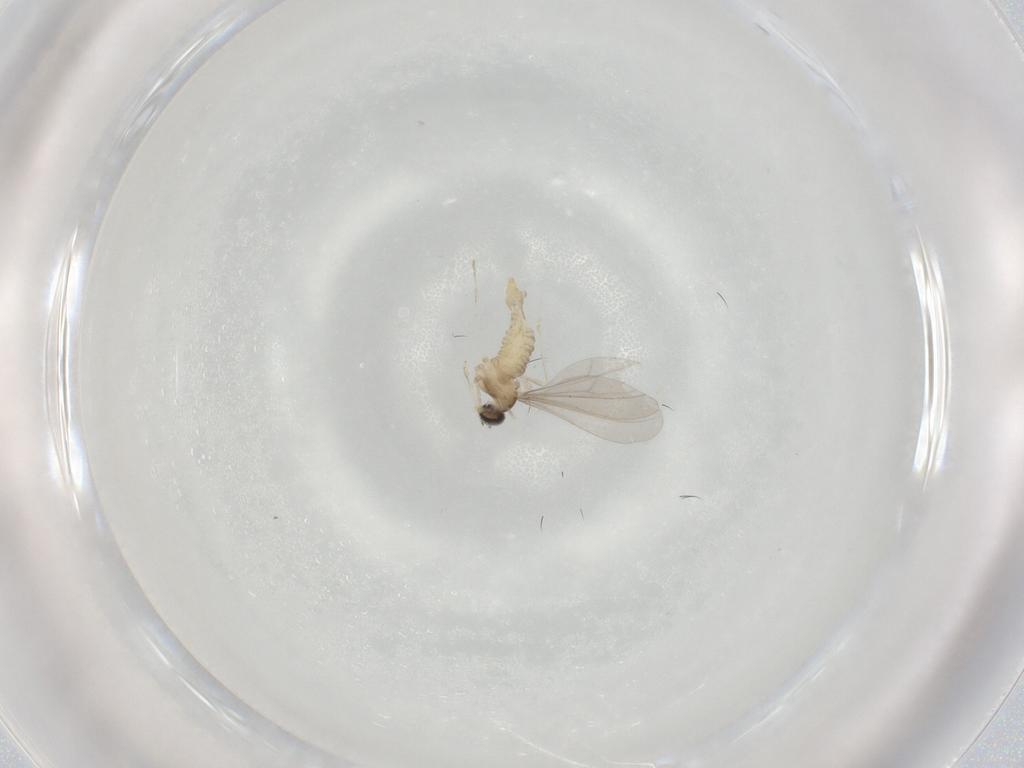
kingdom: Animalia
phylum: Arthropoda
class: Insecta
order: Diptera
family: Cecidomyiidae
